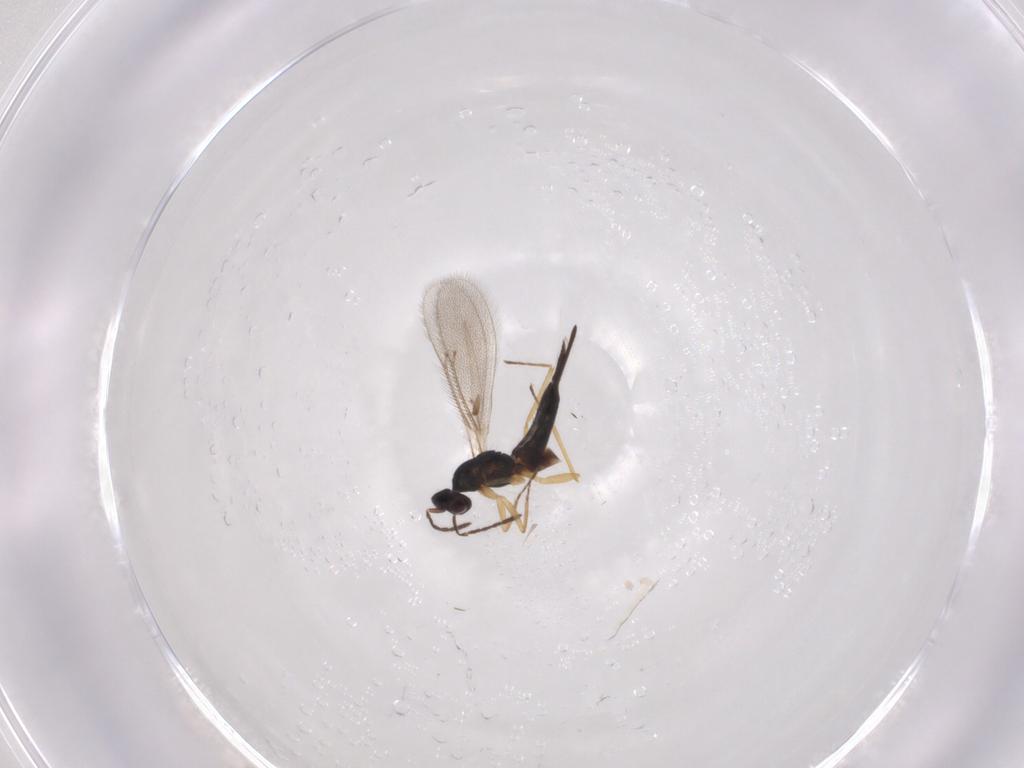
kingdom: Animalia
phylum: Arthropoda
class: Insecta
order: Hymenoptera
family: Eulophidae
